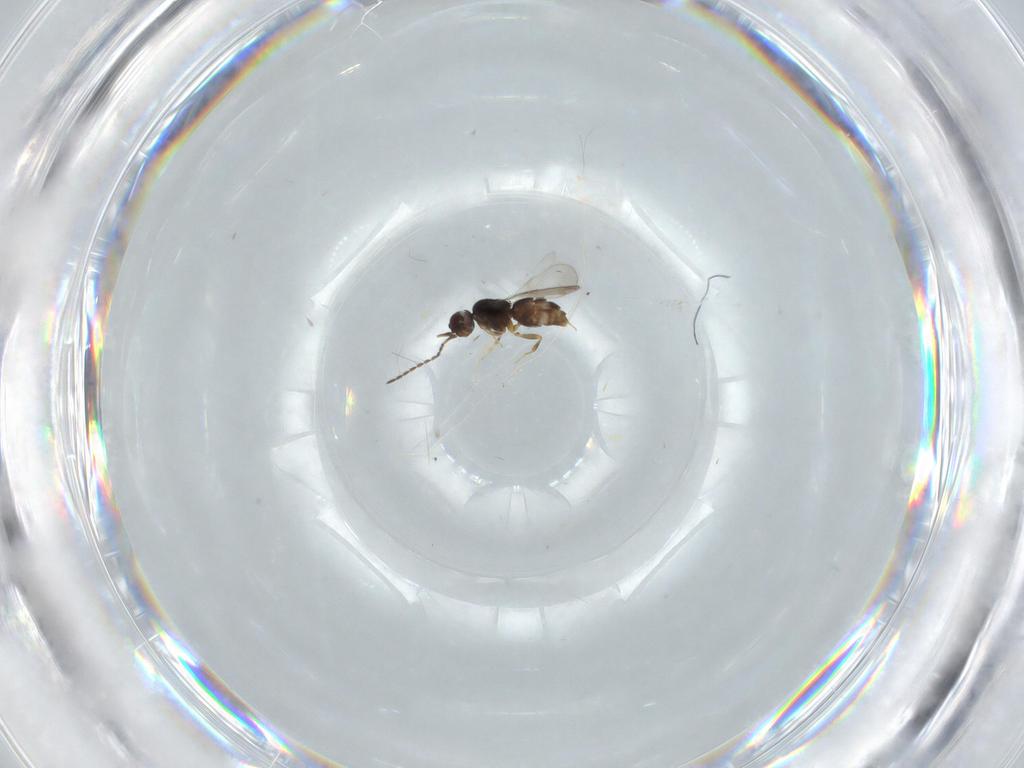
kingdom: Animalia
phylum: Arthropoda
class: Insecta
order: Hymenoptera
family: Ceraphronidae
